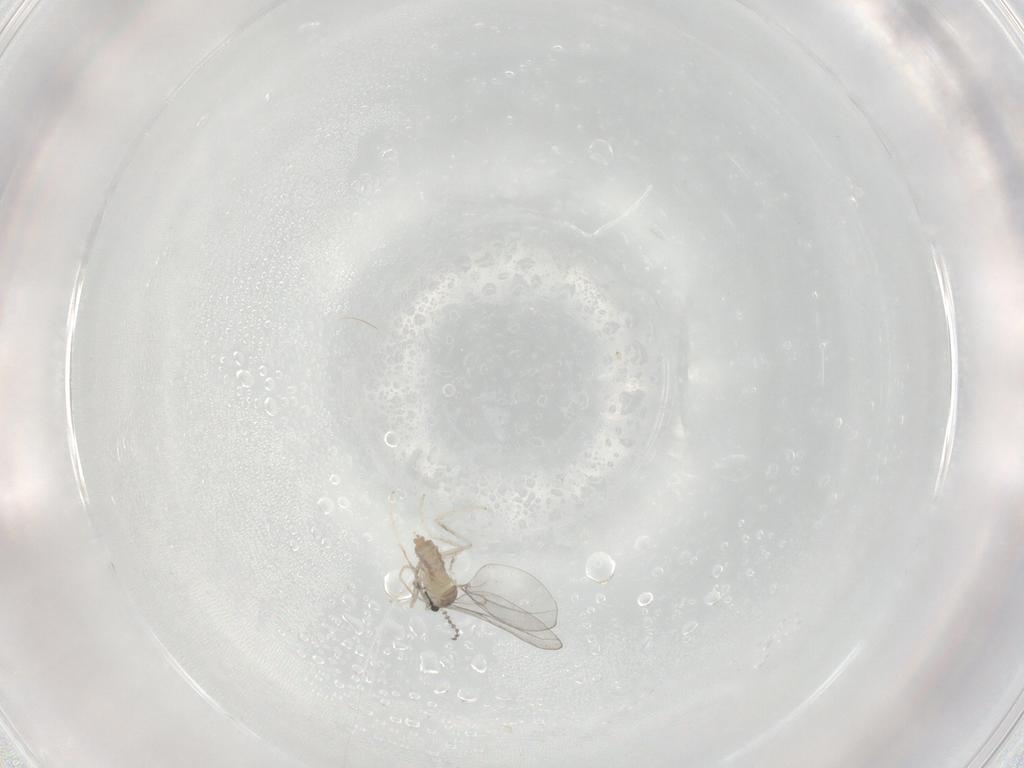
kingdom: Animalia
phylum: Arthropoda
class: Insecta
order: Diptera
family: Cecidomyiidae
